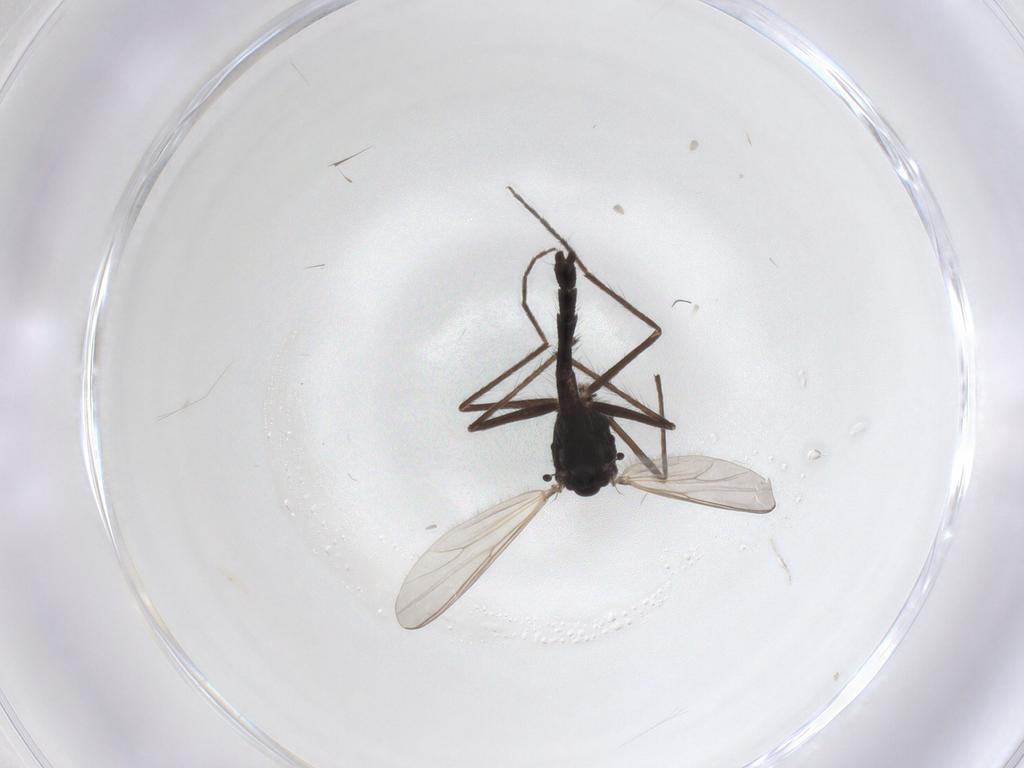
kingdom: Animalia
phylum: Arthropoda
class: Insecta
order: Diptera
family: Chironomidae
